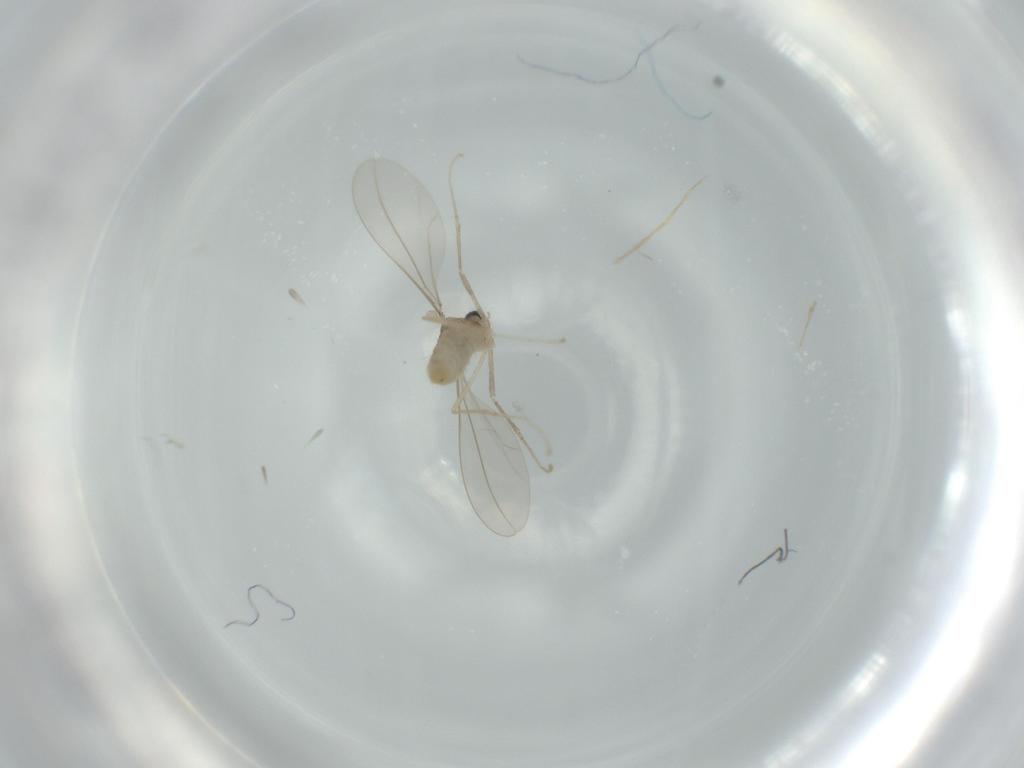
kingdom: Animalia
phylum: Arthropoda
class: Insecta
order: Diptera
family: Cecidomyiidae
